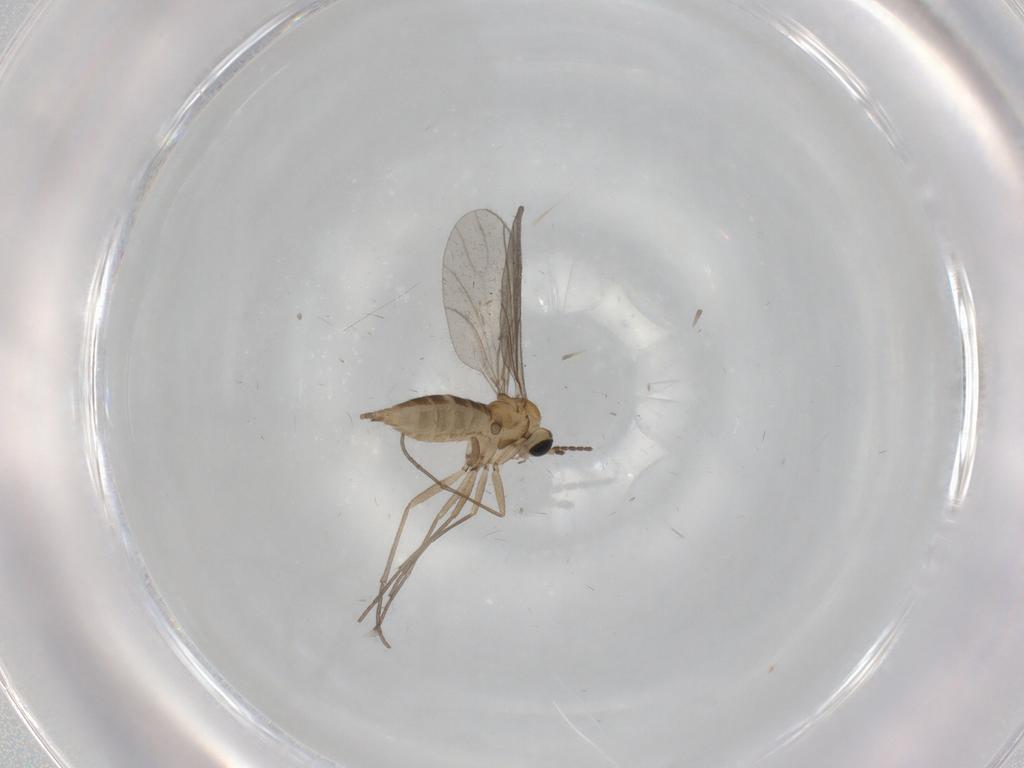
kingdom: Animalia
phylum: Arthropoda
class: Insecta
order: Diptera
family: Sciaridae
